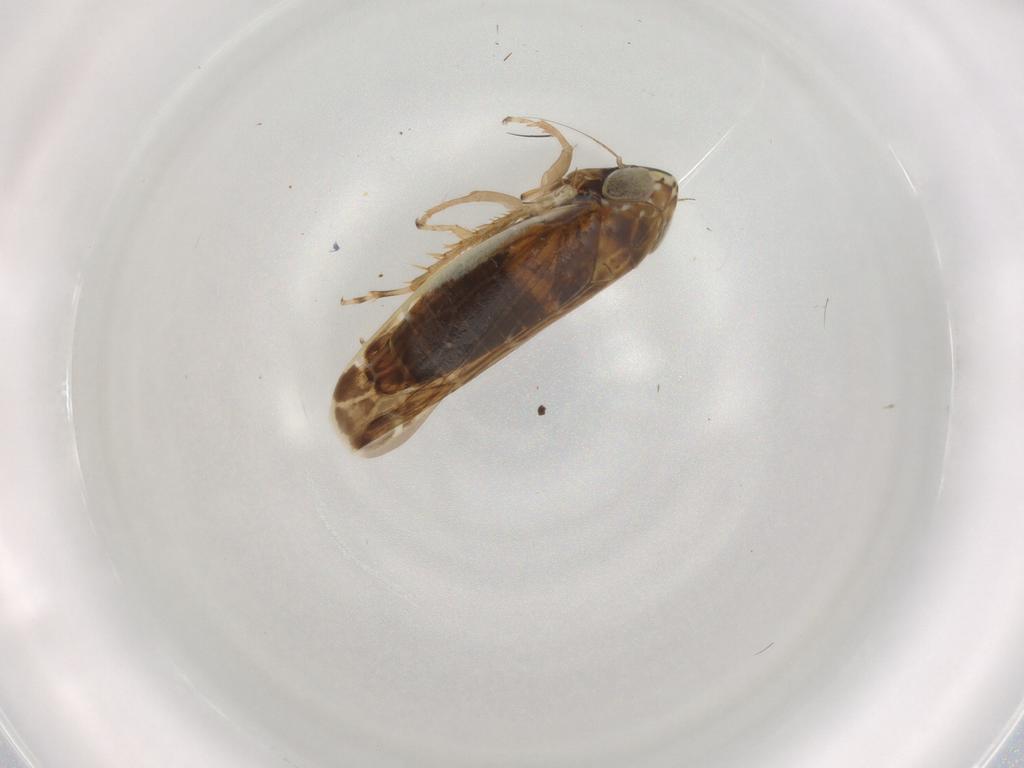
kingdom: Animalia
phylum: Arthropoda
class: Insecta
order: Hemiptera
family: Cicadellidae
